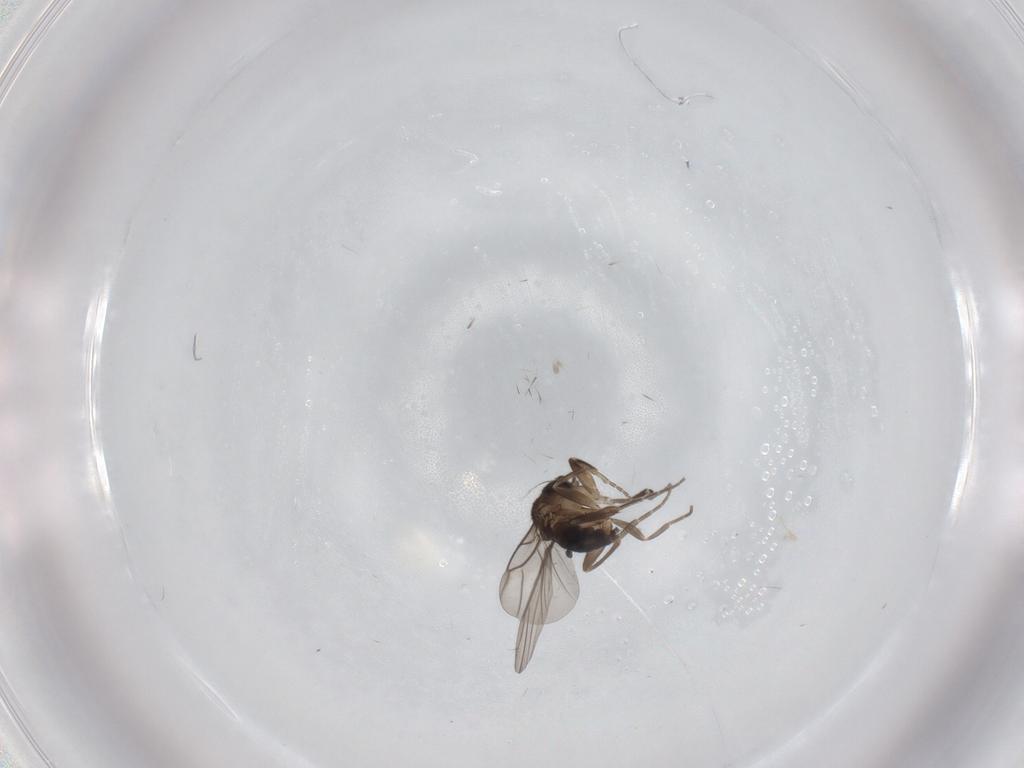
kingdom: Animalia
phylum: Arthropoda
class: Insecta
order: Diptera
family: Phoridae
